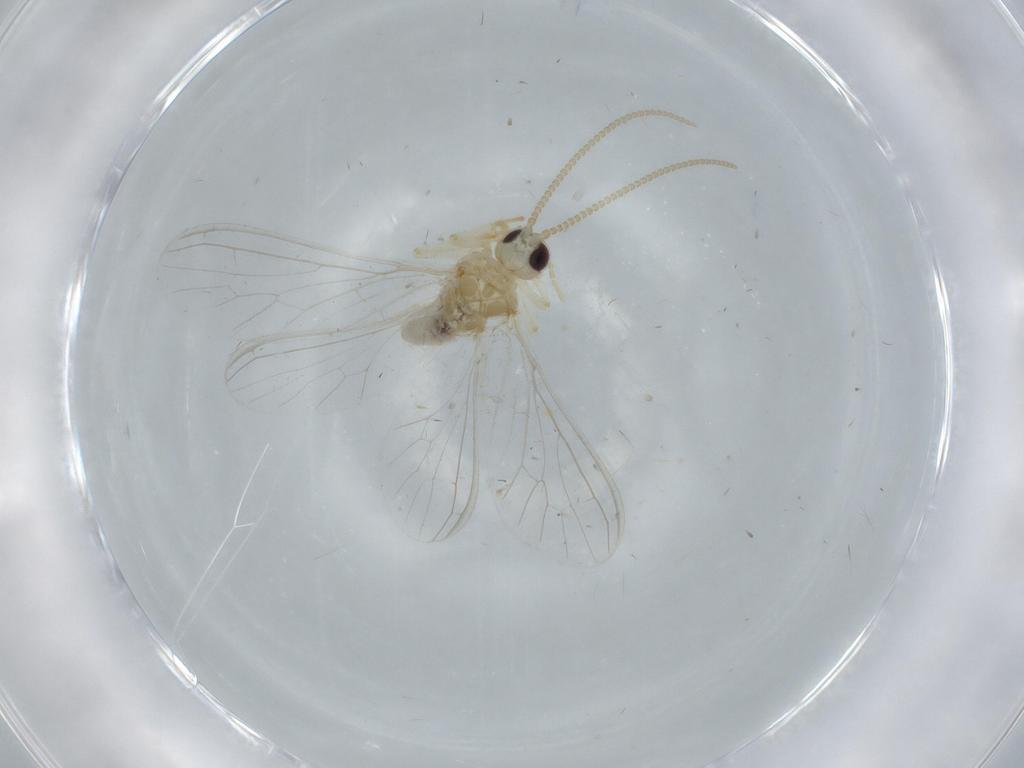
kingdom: Animalia
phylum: Arthropoda
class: Insecta
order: Neuroptera
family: Coniopterygidae
